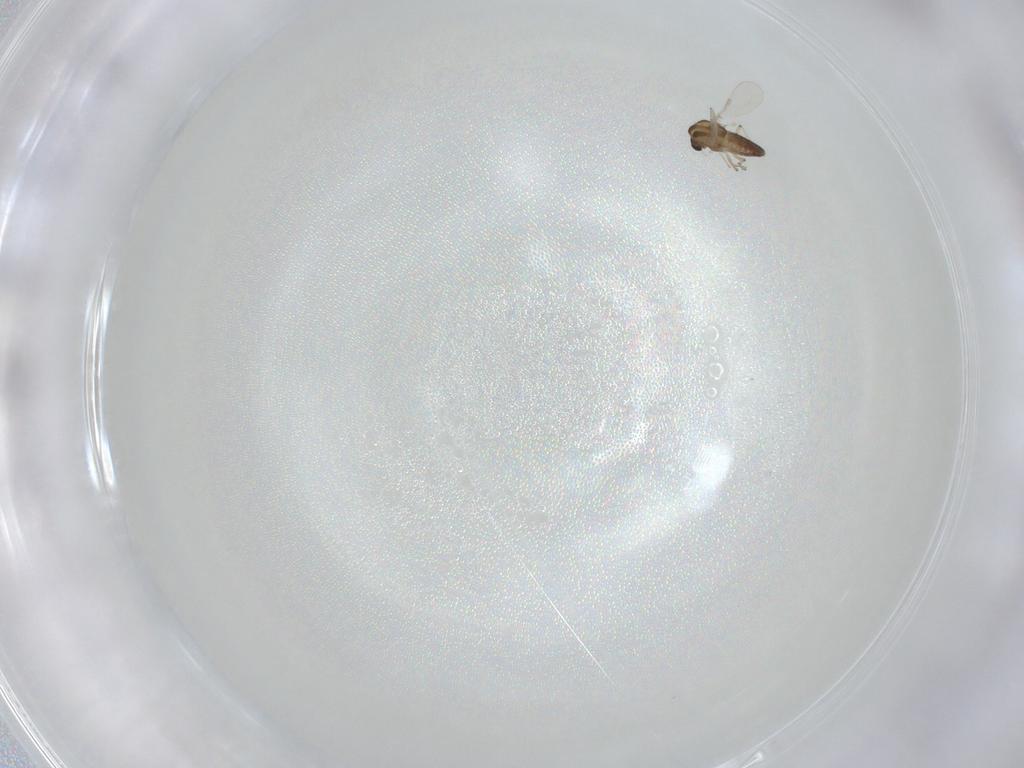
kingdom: Animalia
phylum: Arthropoda
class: Insecta
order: Diptera
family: Chironomidae
